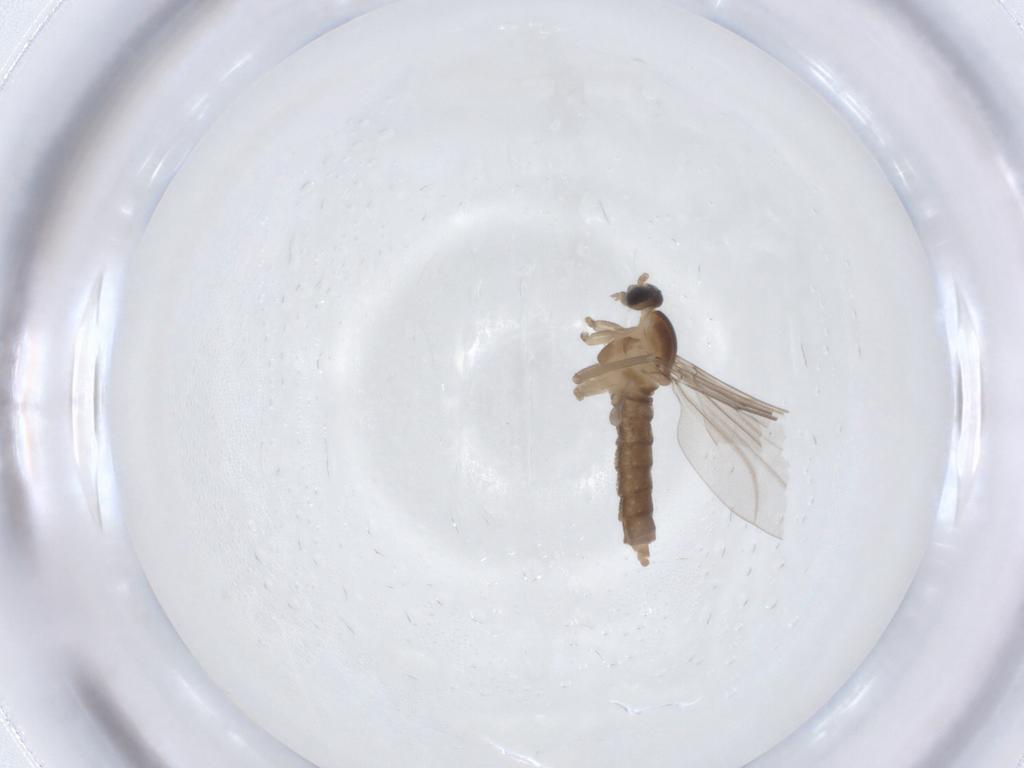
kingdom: Animalia
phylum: Arthropoda
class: Insecta
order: Diptera
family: Cecidomyiidae
